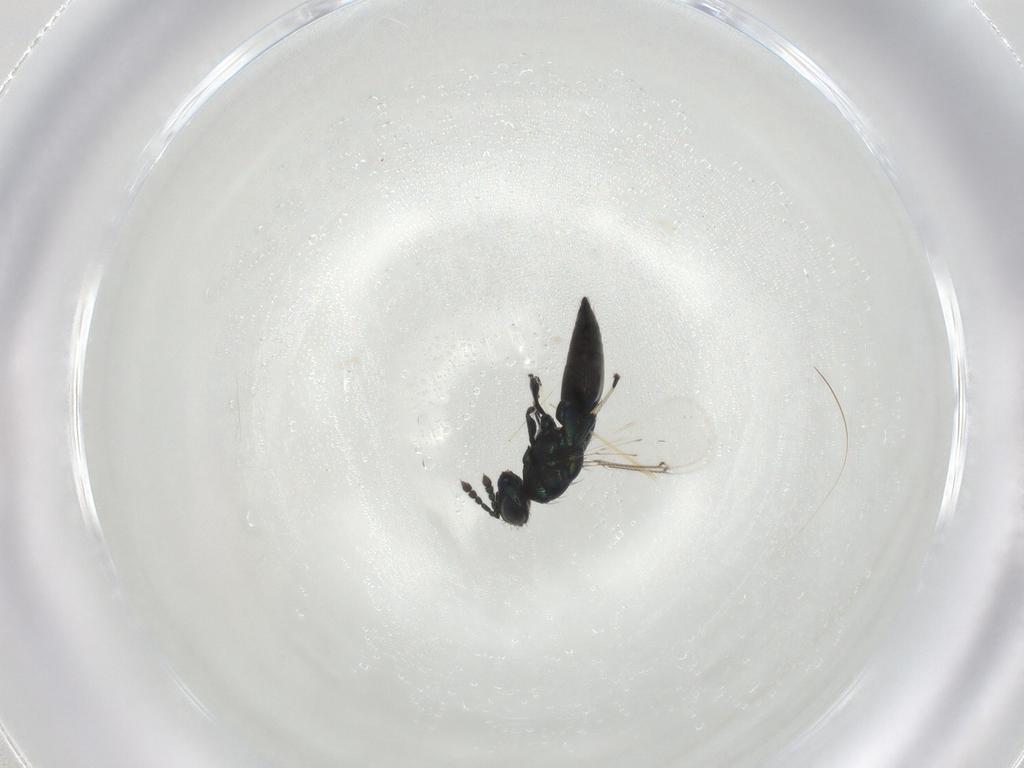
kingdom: Animalia
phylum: Arthropoda
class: Insecta
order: Hymenoptera
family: Eulophidae
